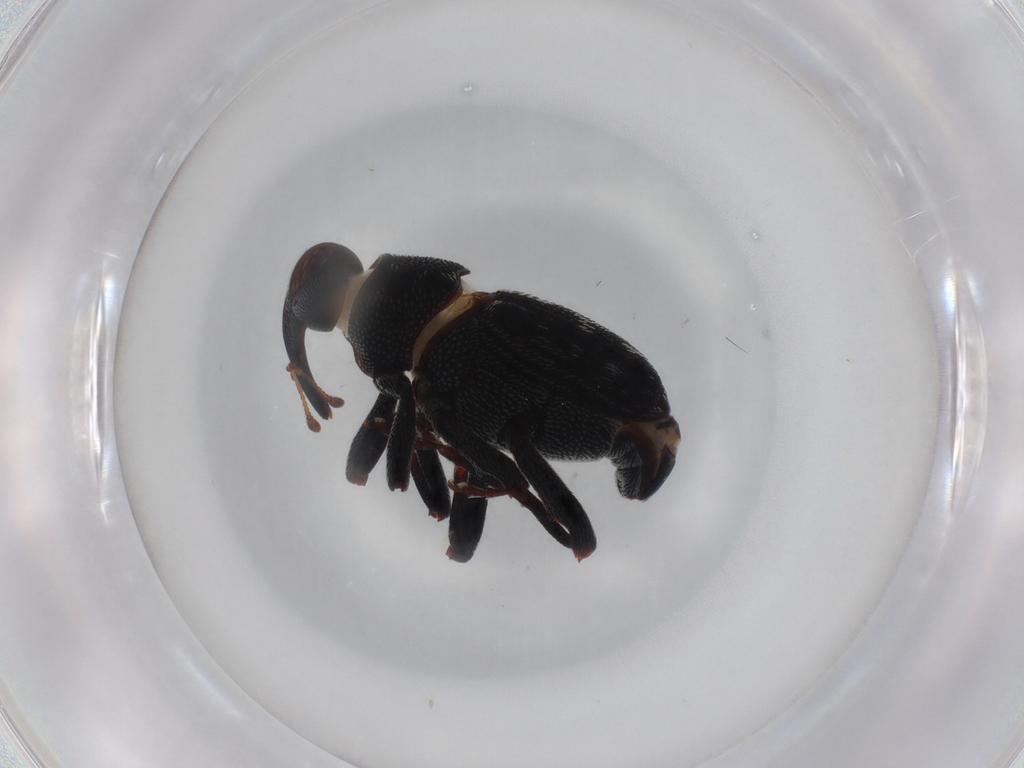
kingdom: Animalia
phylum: Arthropoda
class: Insecta
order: Coleoptera
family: Curculionidae
